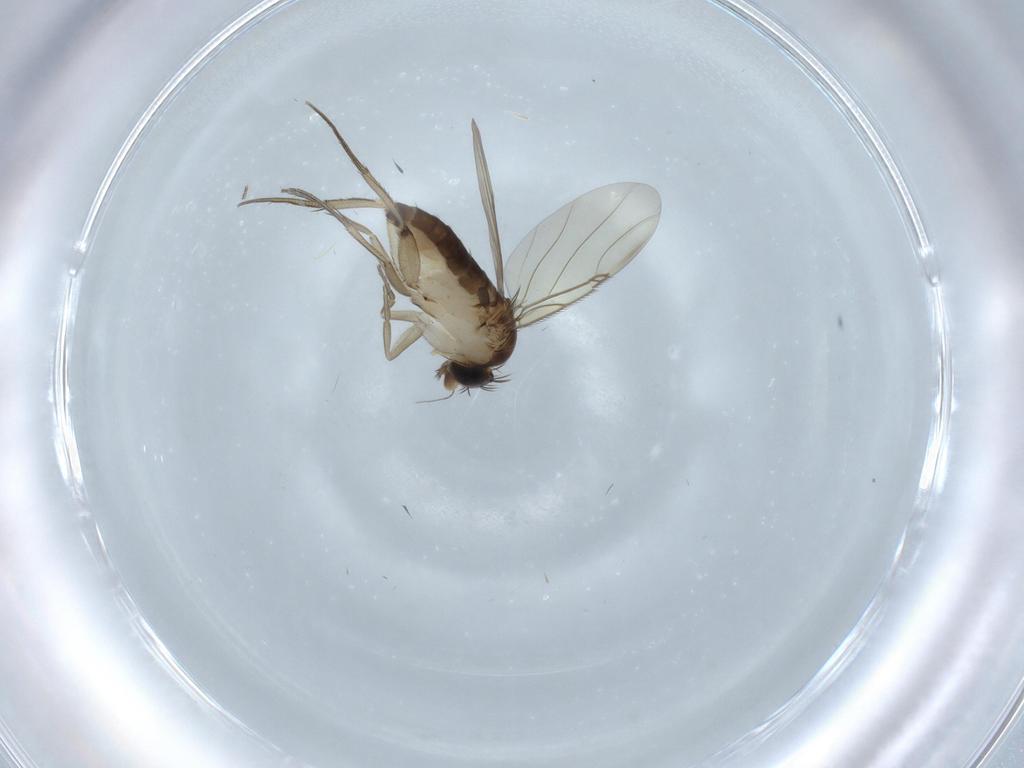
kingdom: Animalia
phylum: Arthropoda
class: Insecta
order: Diptera
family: Phoridae
